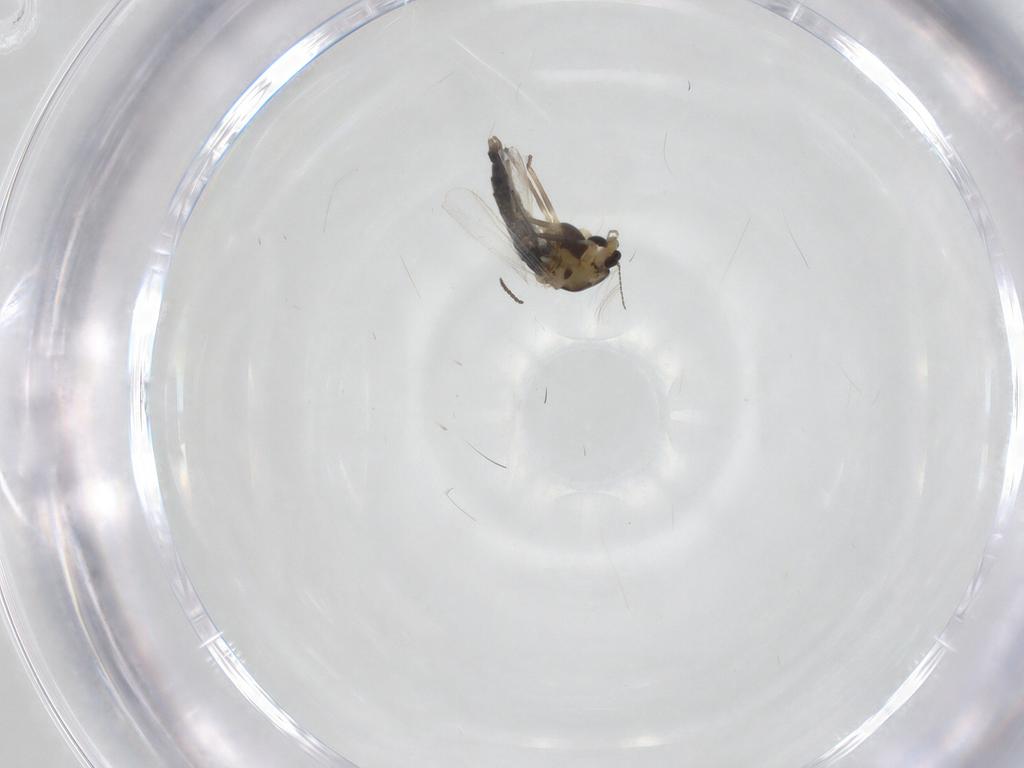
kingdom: Animalia
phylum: Arthropoda
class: Insecta
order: Diptera
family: Chironomidae
